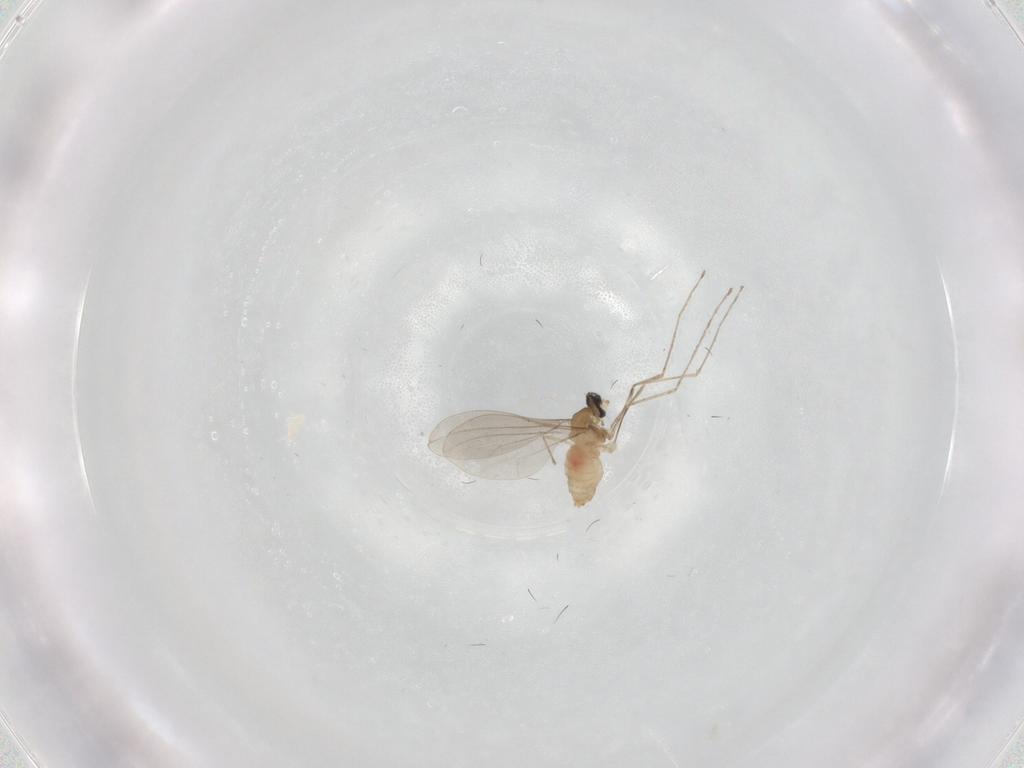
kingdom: Animalia
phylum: Arthropoda
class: Insecta
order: Diptera
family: Cecidomyiidae
